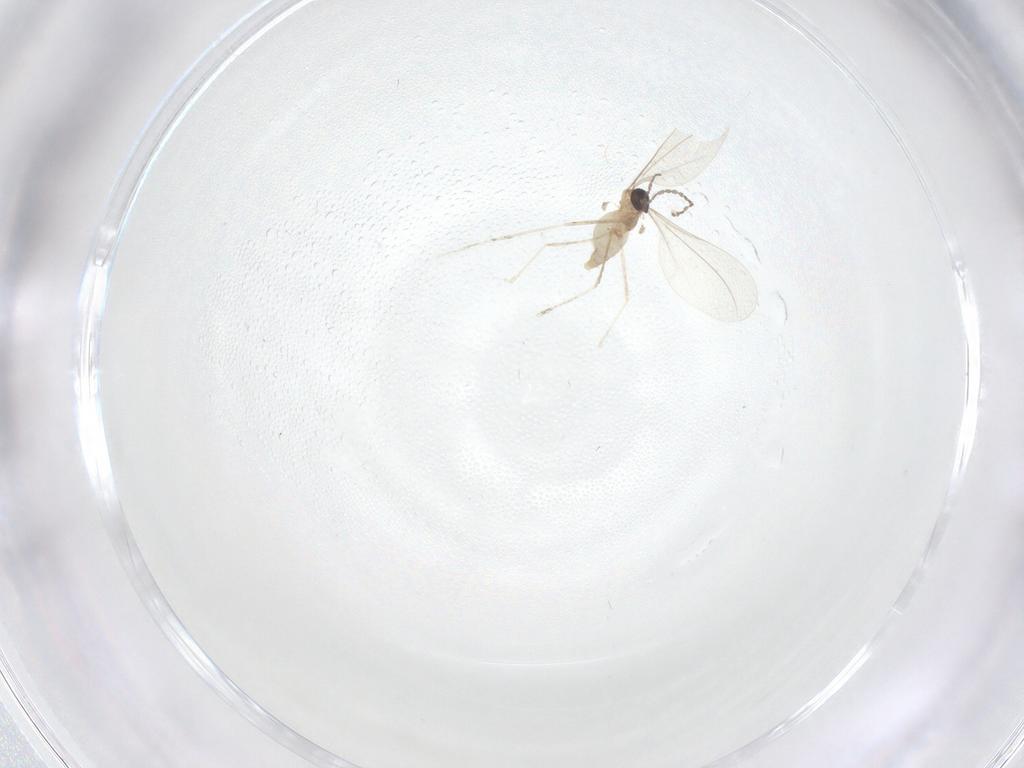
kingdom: Animalia
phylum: Arthropoda
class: Insecta
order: Diptera
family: Cecidomyiidae
